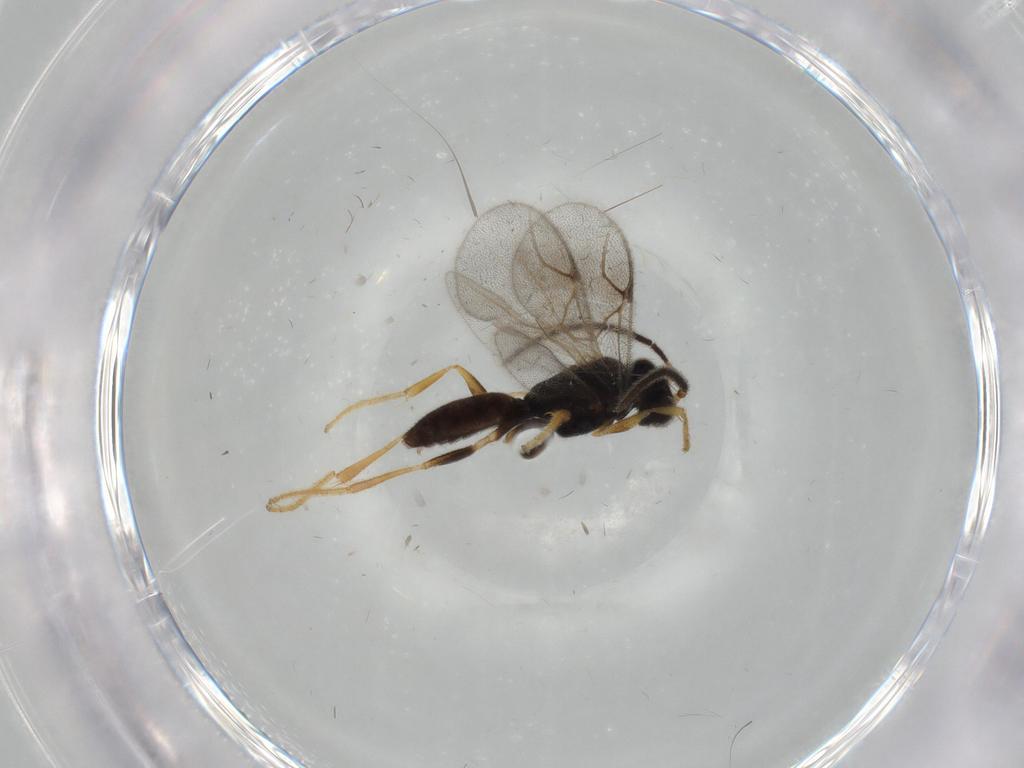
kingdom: Animalia
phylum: Arthropoda
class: Insecta
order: Hymenoptera
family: Dryinidae
